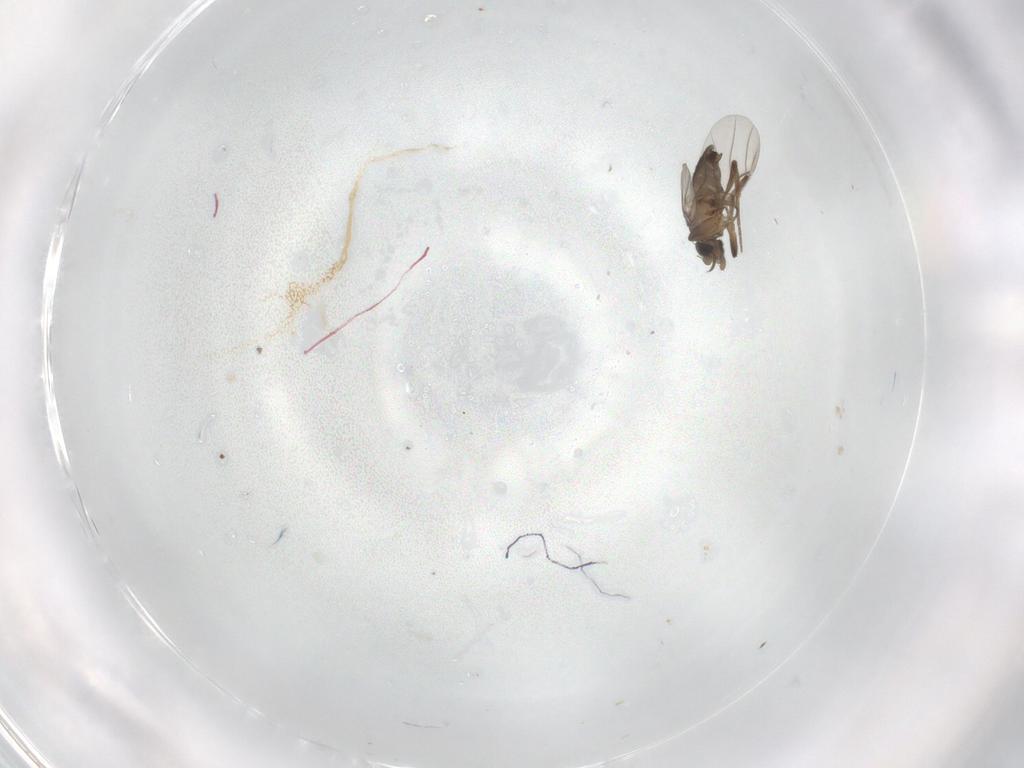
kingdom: Animalia
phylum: Arthropoda
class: Insecta
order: Diptera
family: Phoridae
